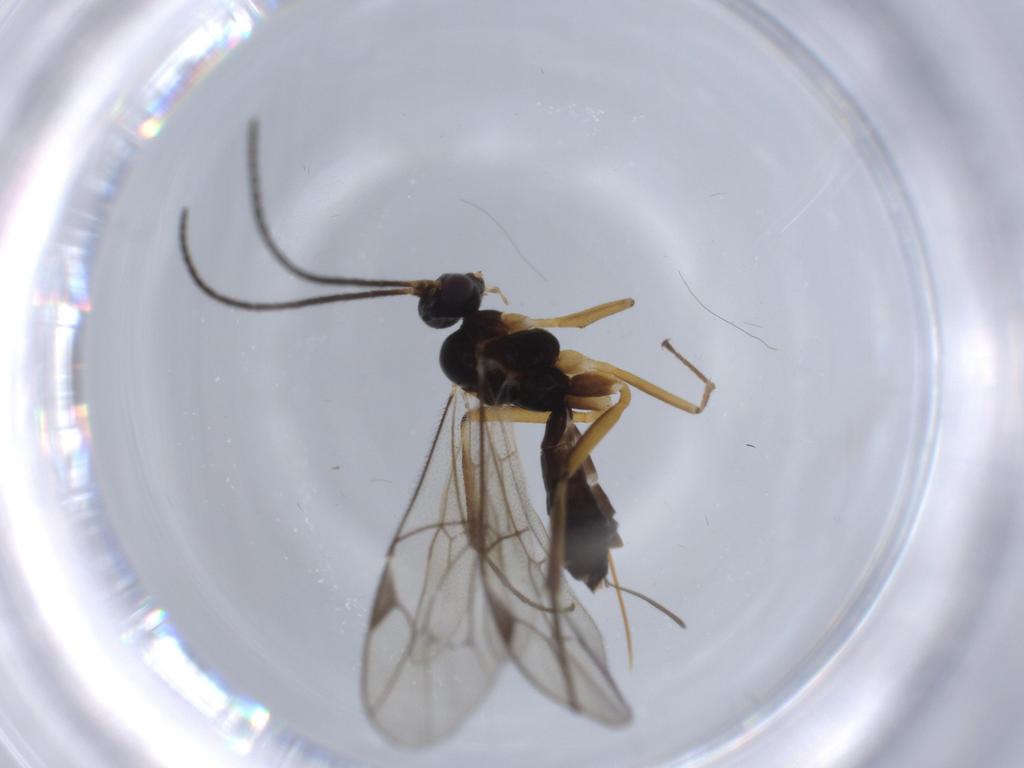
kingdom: Animalia
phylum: Arthropoda
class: Insecta
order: Hymenoptera
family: Ichneumonidae
